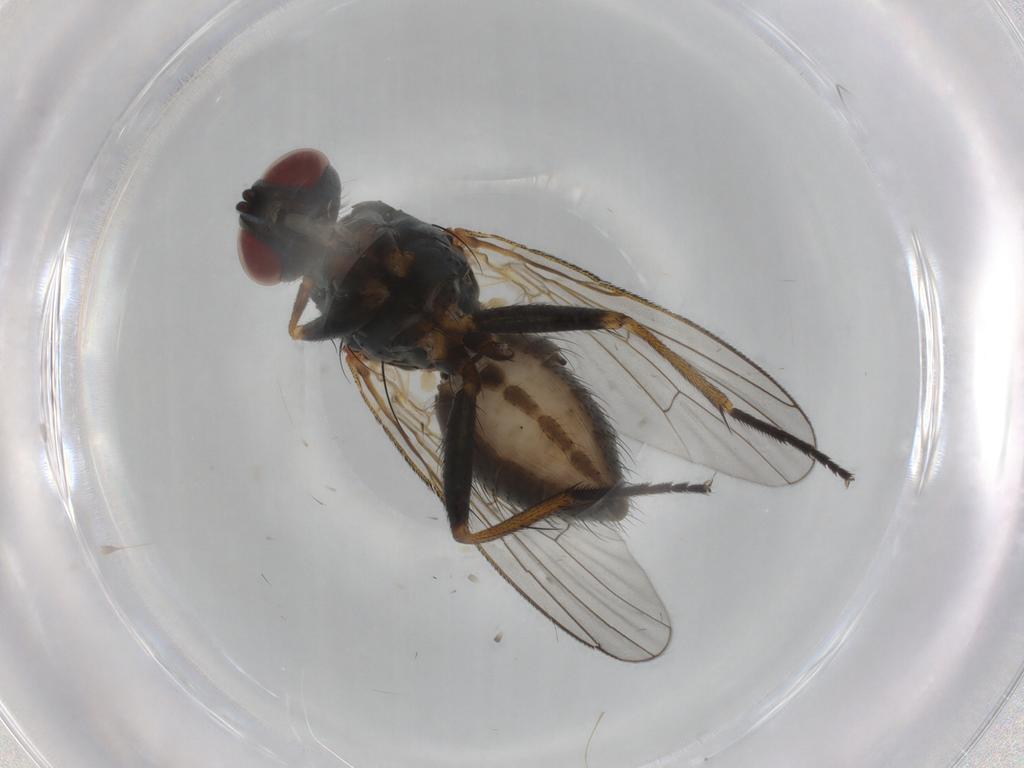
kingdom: Animalia
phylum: Arthropoda
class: Insecta
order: Diptera
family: Muscidae
